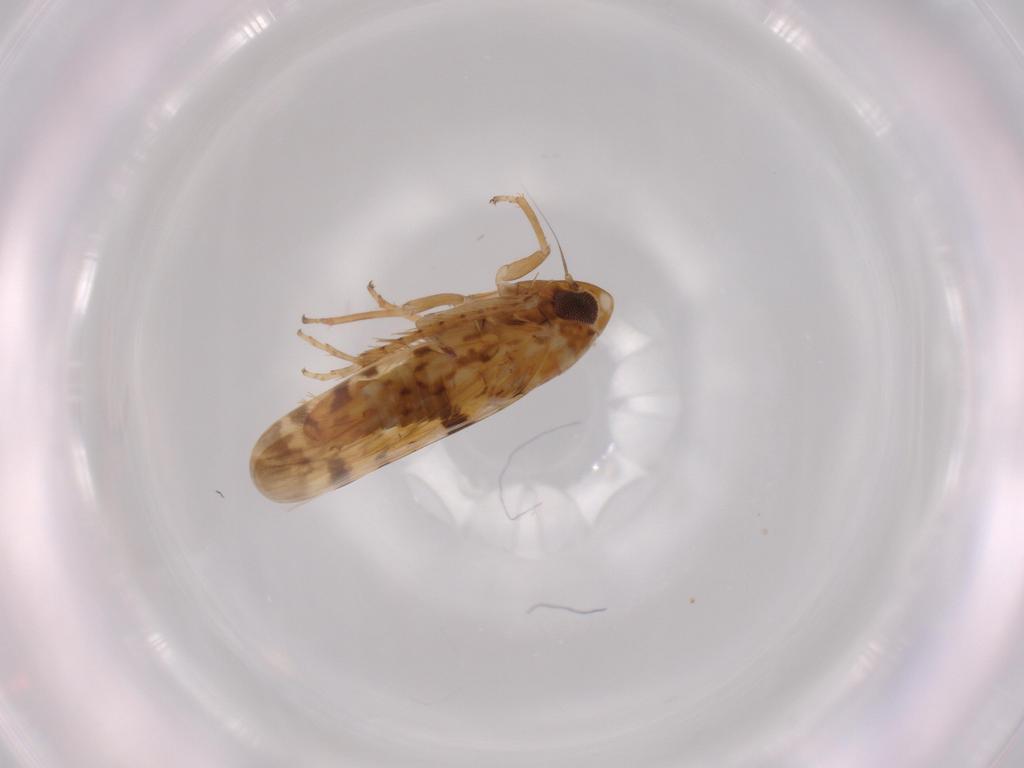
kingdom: Animalia
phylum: Arthropoda
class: Insecta
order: Hemiptera
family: Cicadellidae
